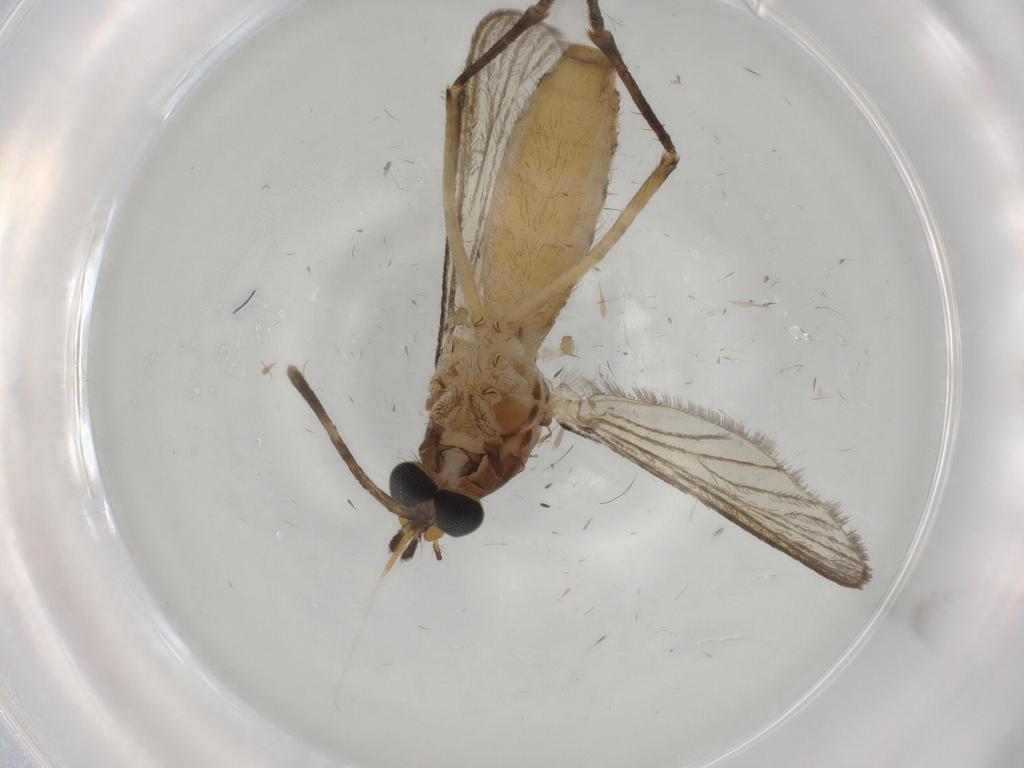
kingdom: Animalia
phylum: Arthropoda
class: Insecta
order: Diptera
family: Culicidae
